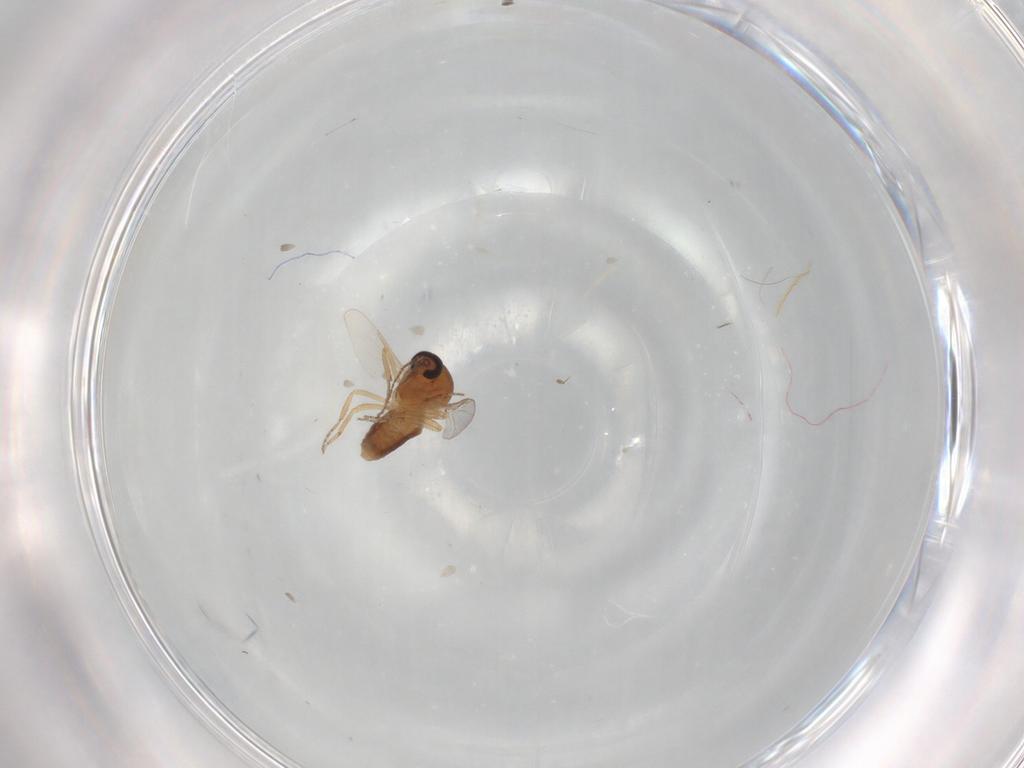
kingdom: Animalia
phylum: Arthropoda
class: Insecta
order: Diptera
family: Ceratopogonidae
